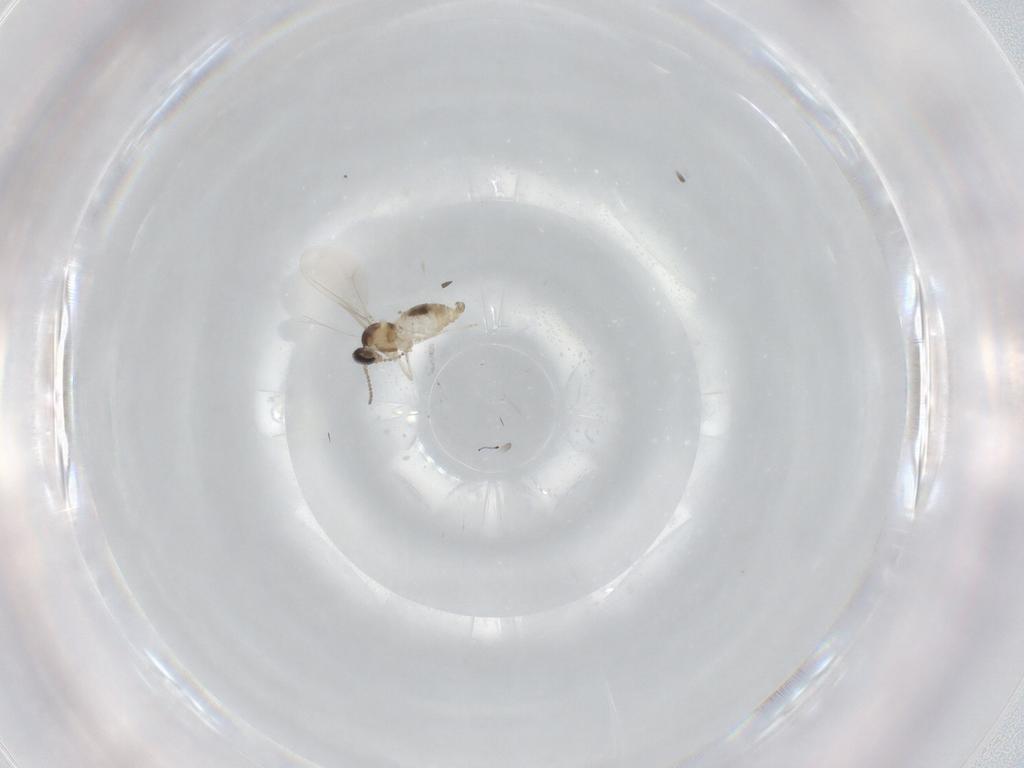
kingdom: Animalia
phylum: Arthropoda
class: Insecta
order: Diptera
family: Cecidomyiidae
